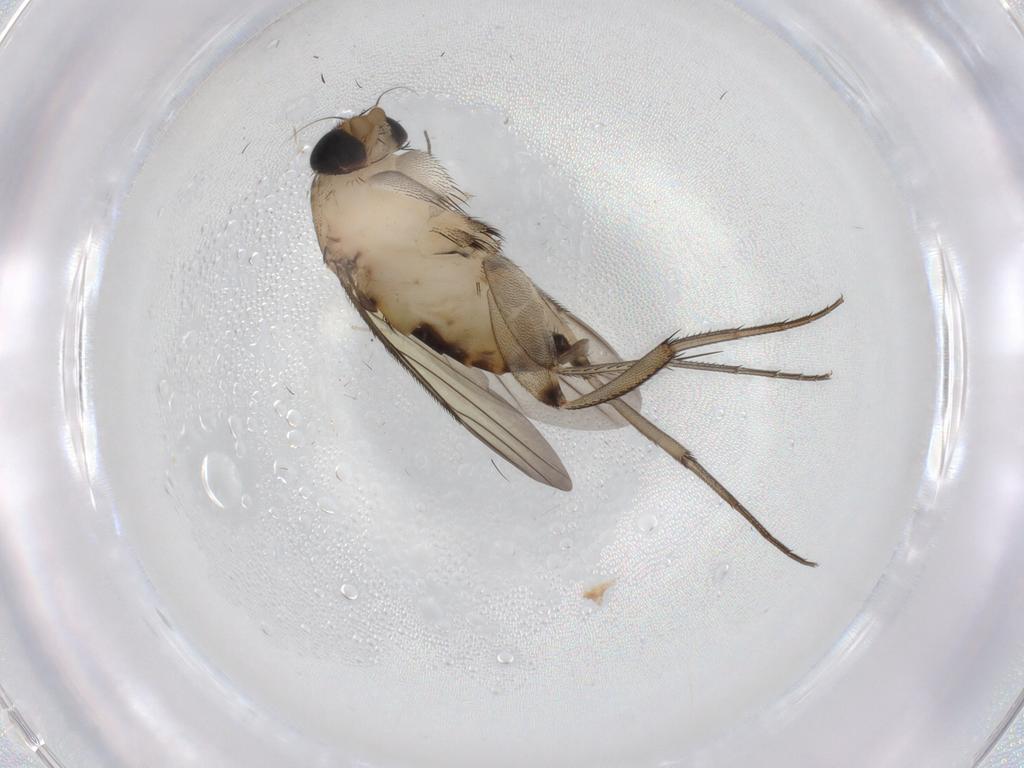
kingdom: Animalia
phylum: Arthropoda
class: Insecta
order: Diptera
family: Phoridae
